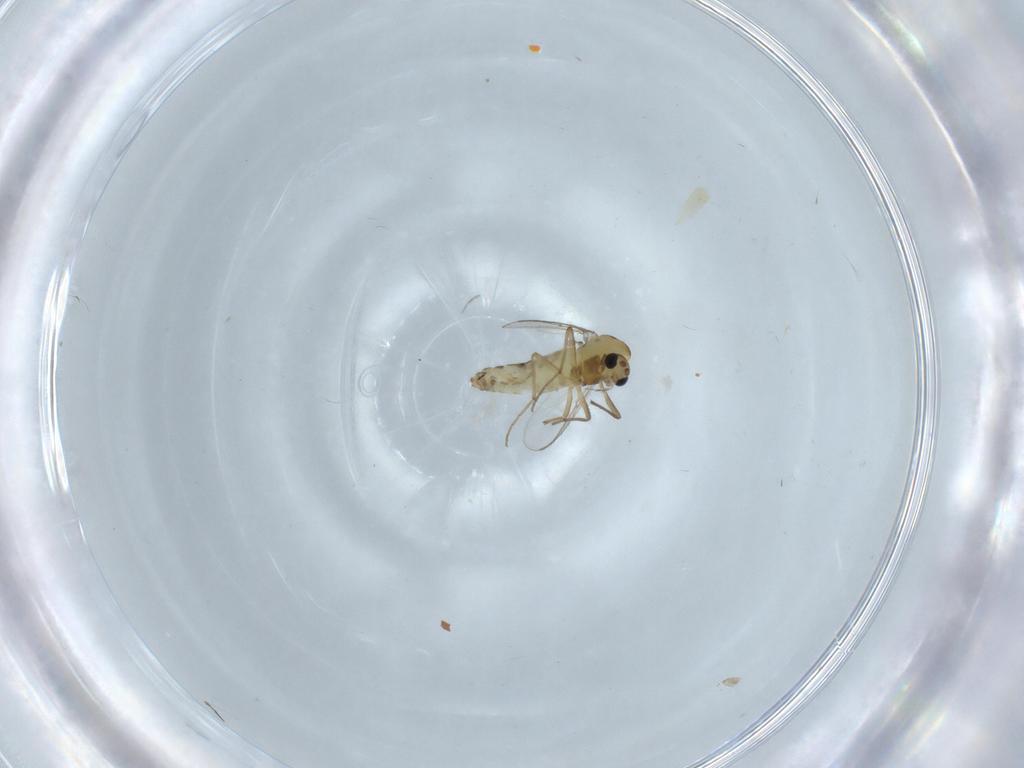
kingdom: Animalia
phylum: Arthropoda
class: Insecta
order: Diptera
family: Chironomidae
